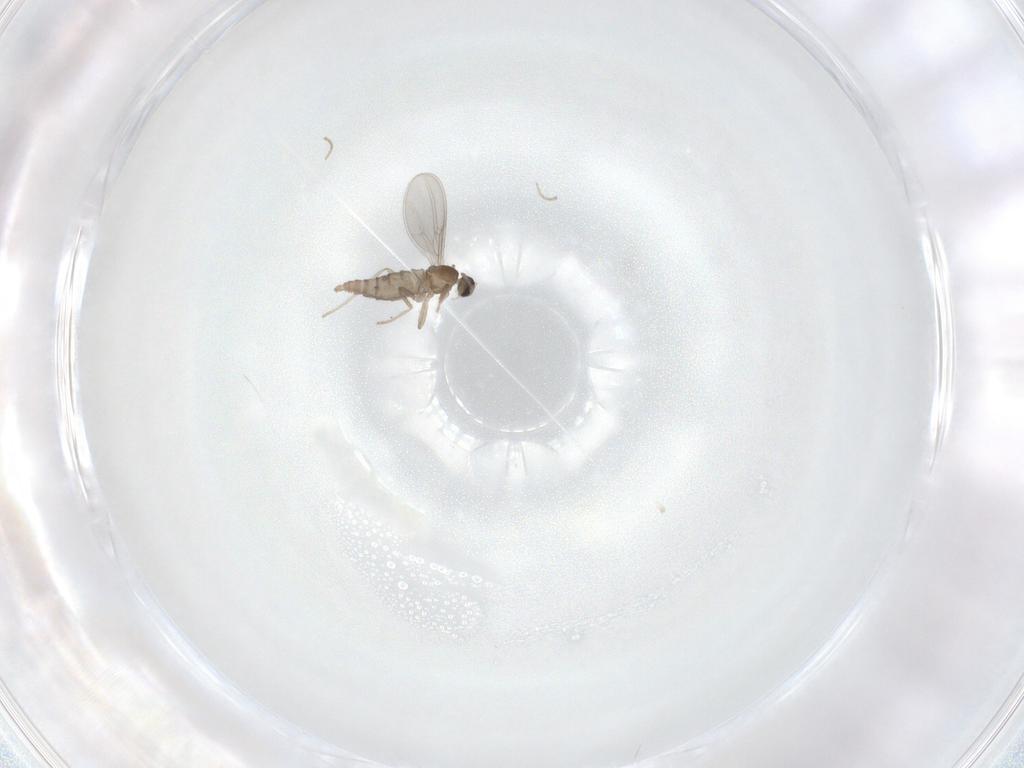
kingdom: Animalia
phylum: Arthropoda
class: Insecta
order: Diptera
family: Cecidomyiidae
